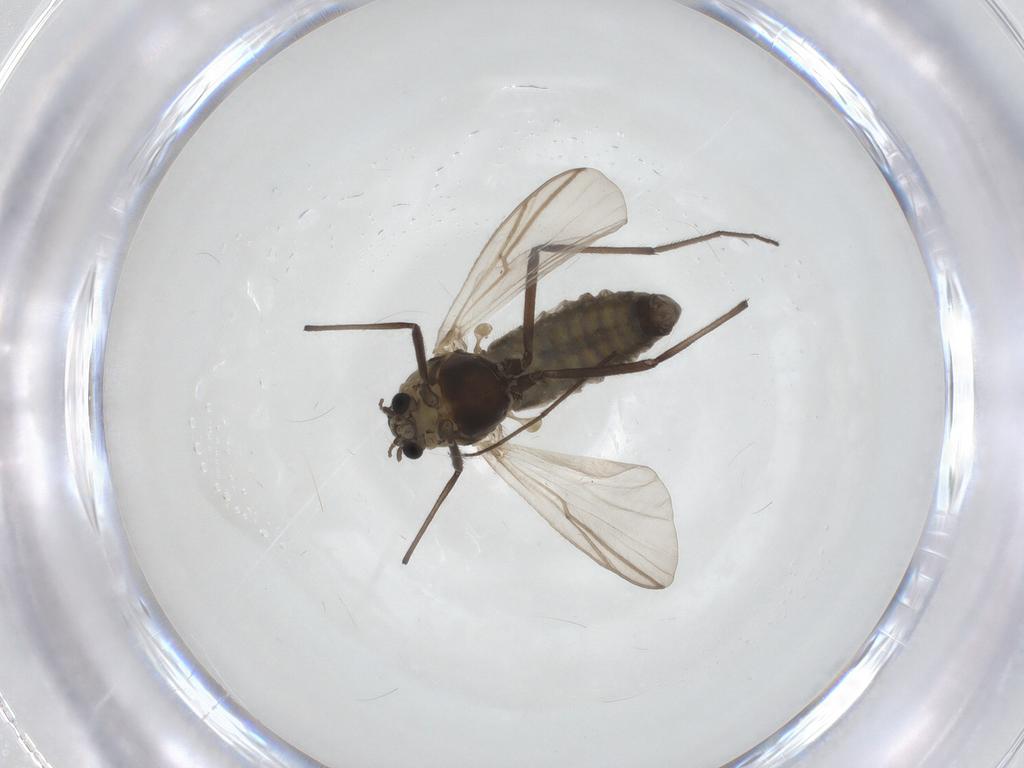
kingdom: Animalia
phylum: Arthropoda
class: Insecta
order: Diptera
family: Chironomidae
